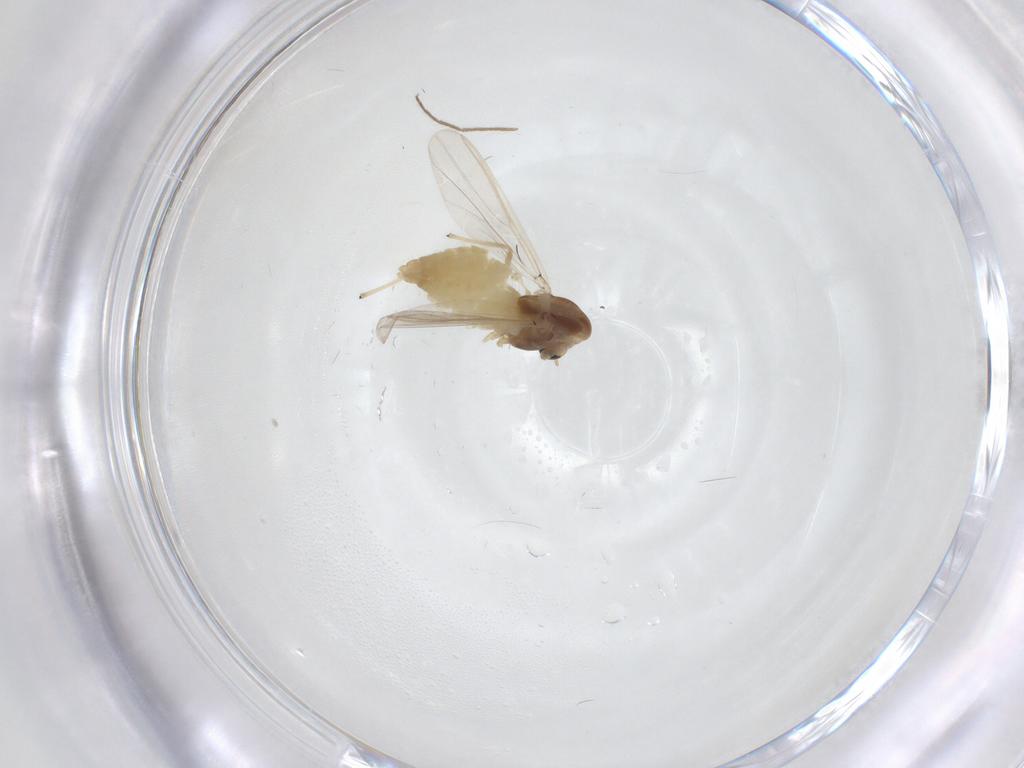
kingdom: Animalia
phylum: Arthropoda
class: Insecta
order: Diptera
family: Chironomidae
